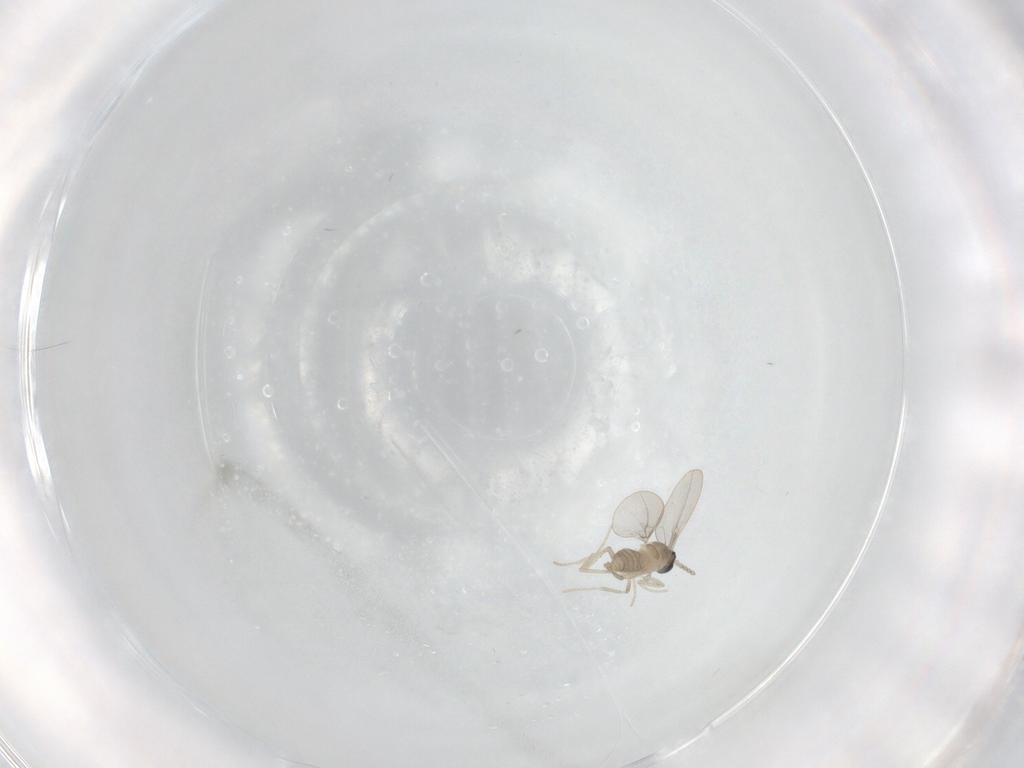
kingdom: Animalia
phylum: Arthropoda
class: Insecta
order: Diptera
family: Cecidomyiidae
